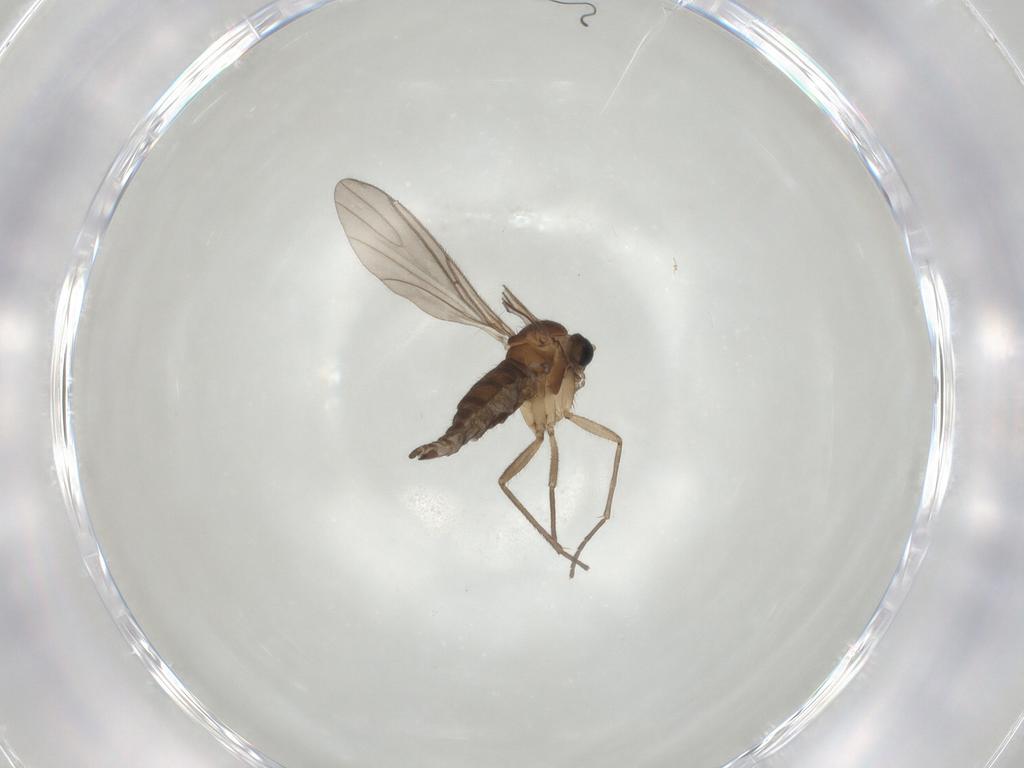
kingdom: Animalia
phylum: Arthropoda
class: Insecta
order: Diptera
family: Sciaridae
